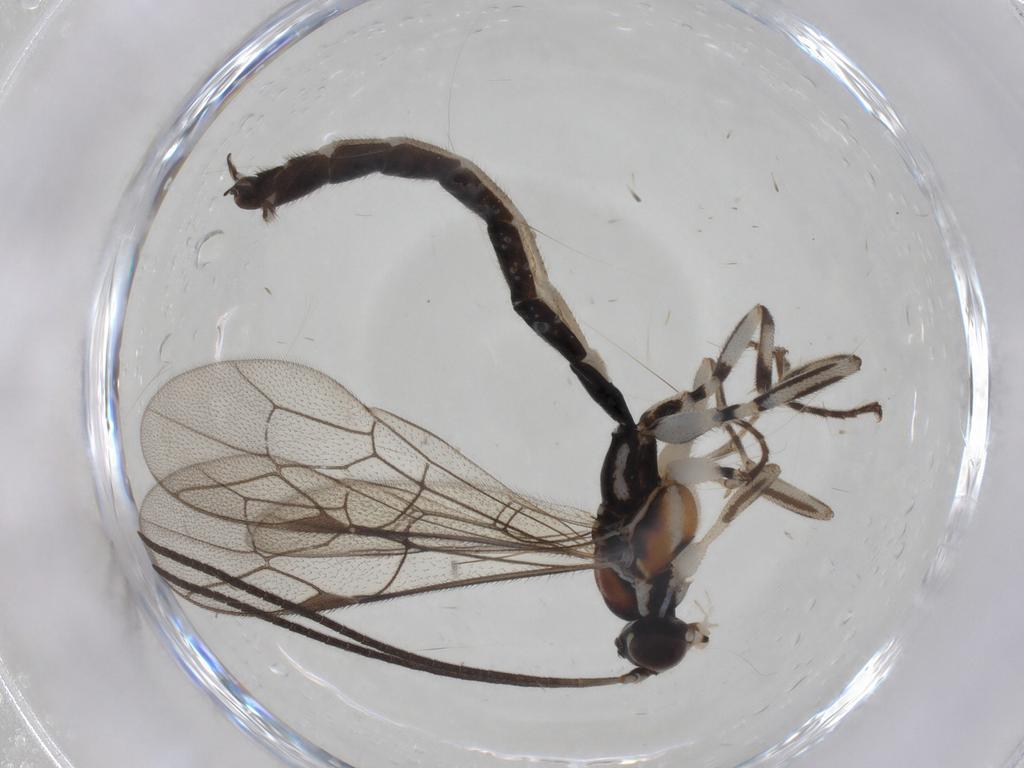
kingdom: Animalia
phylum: Arthropoda
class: Insecta
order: Hymenoptera
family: Ichneumonidae
